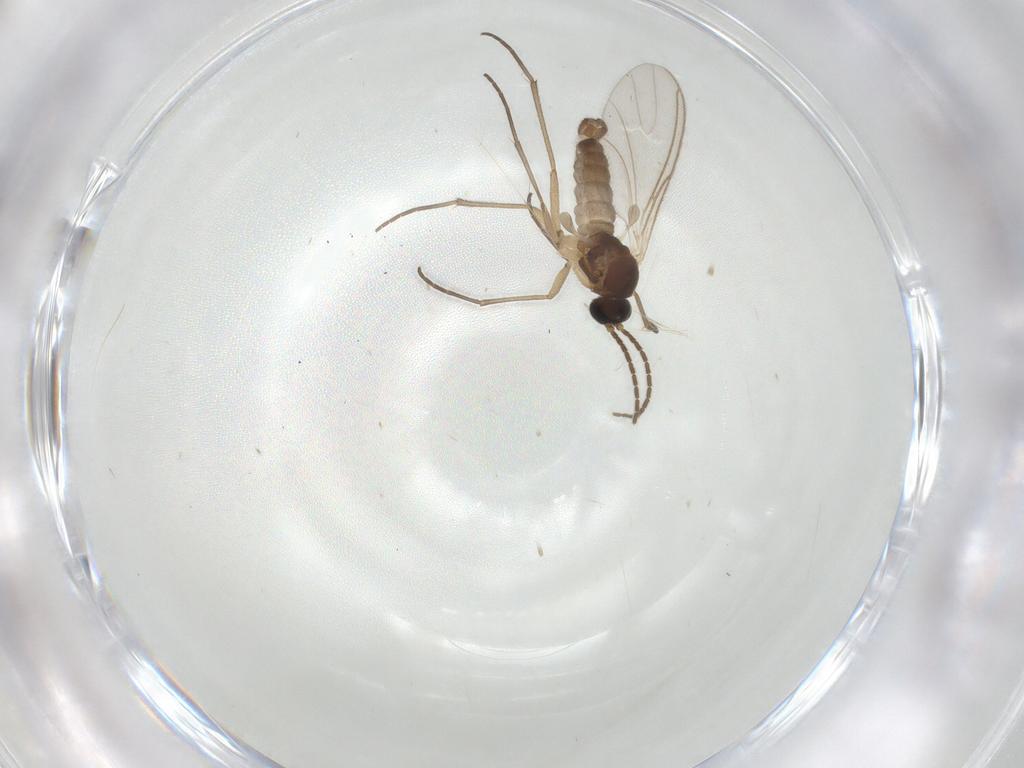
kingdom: Animalia
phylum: Arthropoda
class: Insecta
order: Diptera
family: Sciaridae
